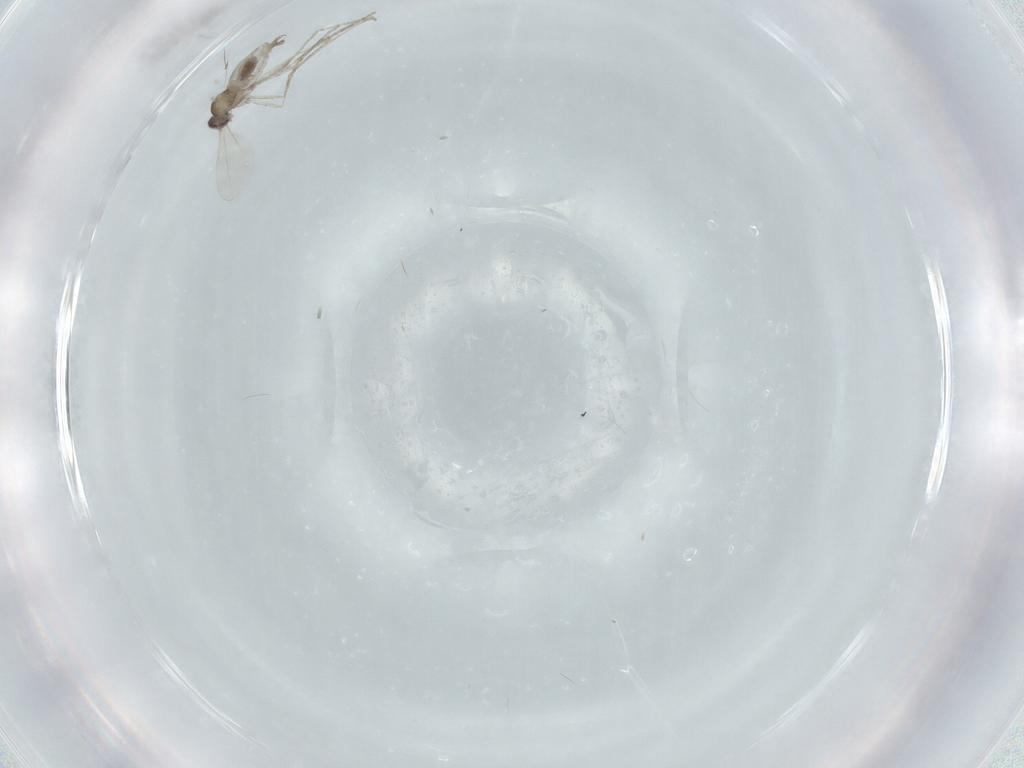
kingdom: Animalia
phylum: Arthropoda
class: Insecta
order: Diptera
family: Cecidomyiidae
